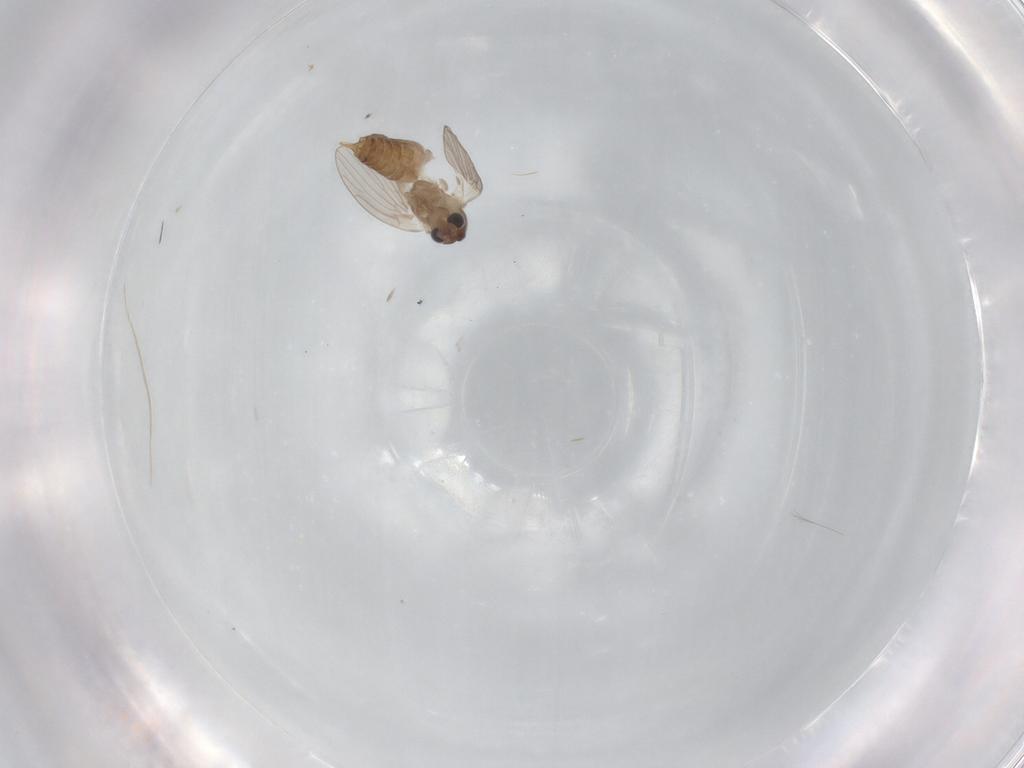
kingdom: Animalia
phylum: Arthropoda
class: Insecta
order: Diptera
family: Psychodidae
